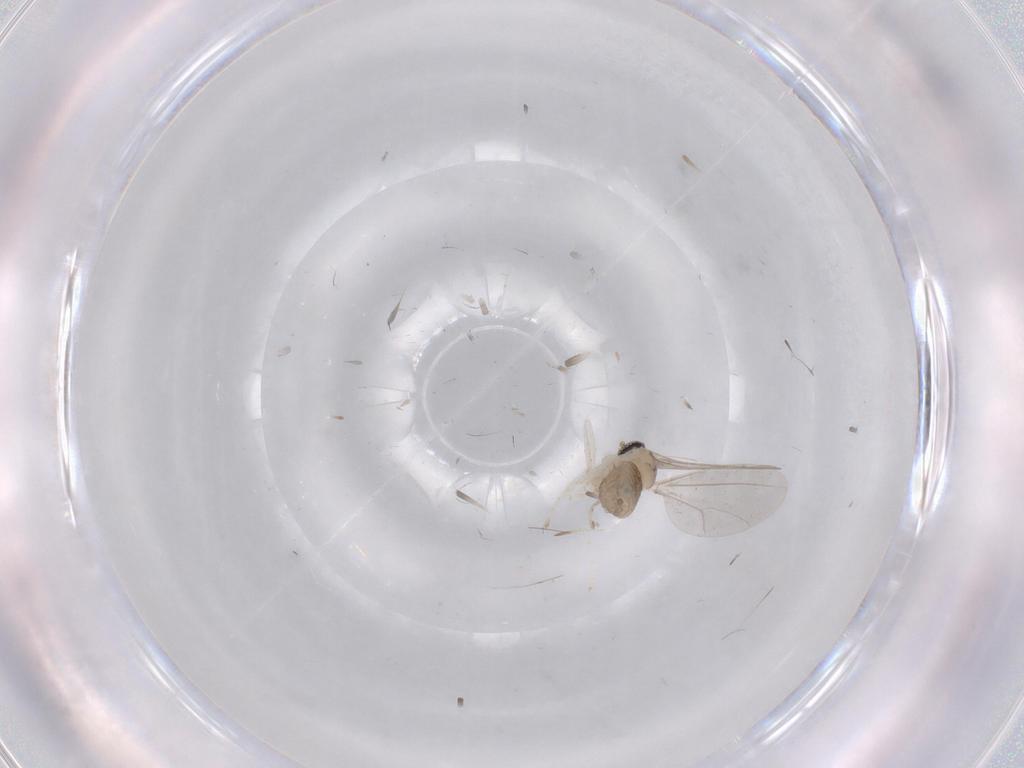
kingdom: Animalia
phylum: Arthropoda
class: Insecta
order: Diptera
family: Cecidomyiidae
